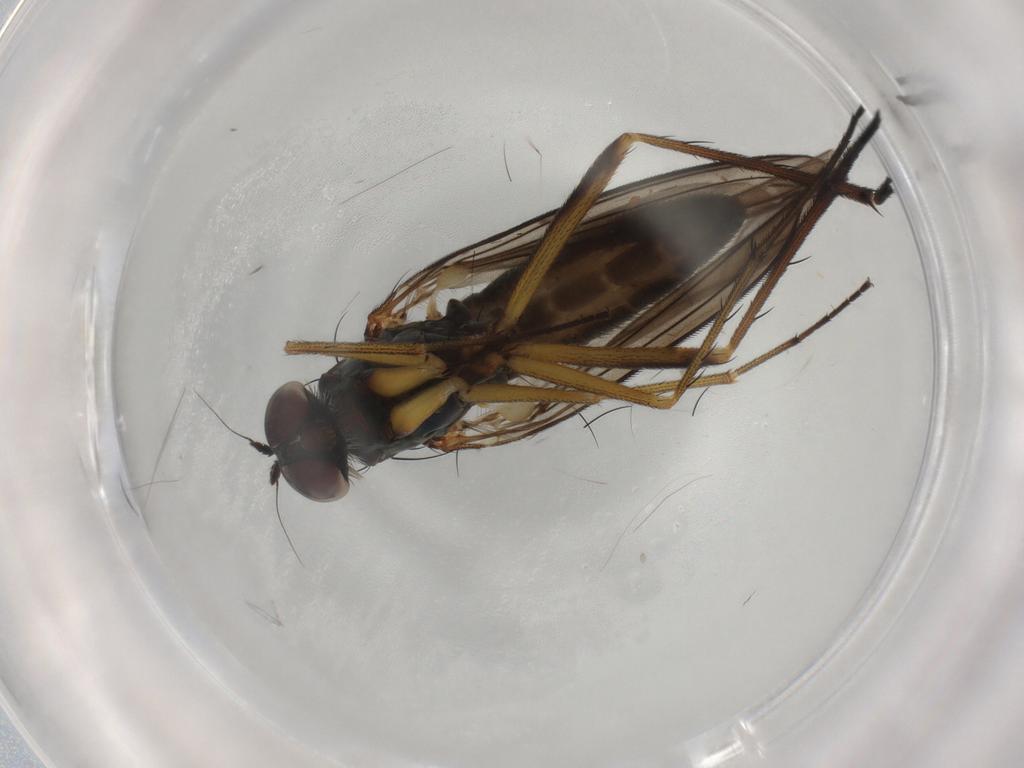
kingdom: Animalia
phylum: Arthropoda
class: Insecta
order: Diptera
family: Dolichopodidae
